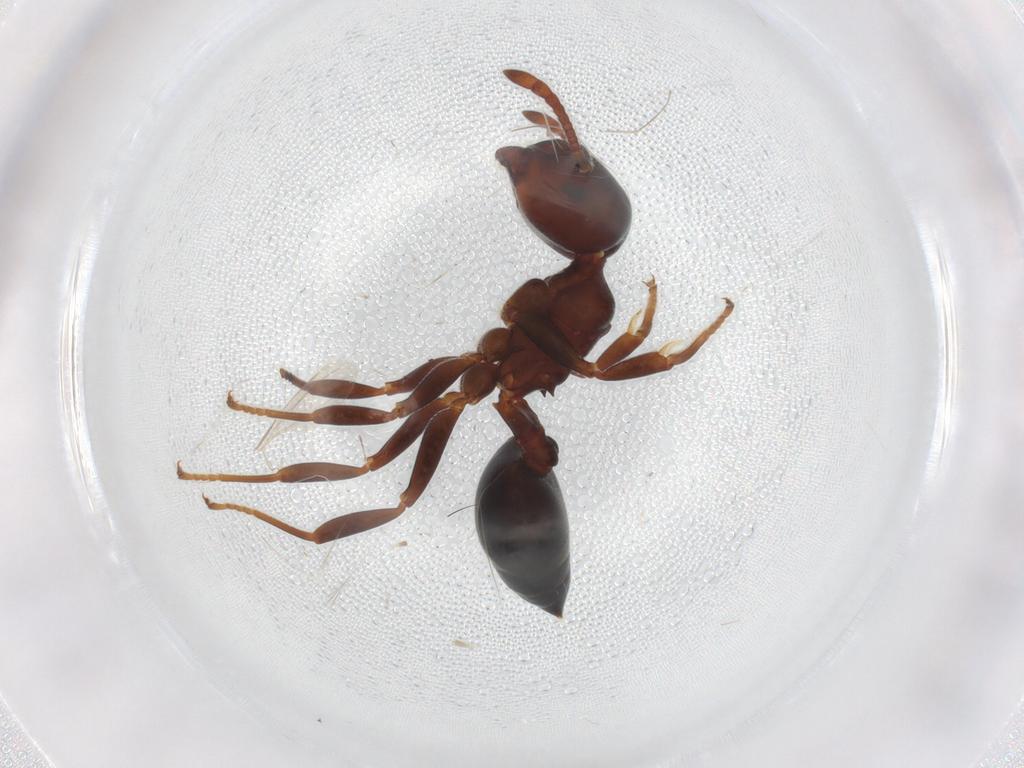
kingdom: Animalia
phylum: Arthropoda
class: Insecta
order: Hymenoptera
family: Formicidae
